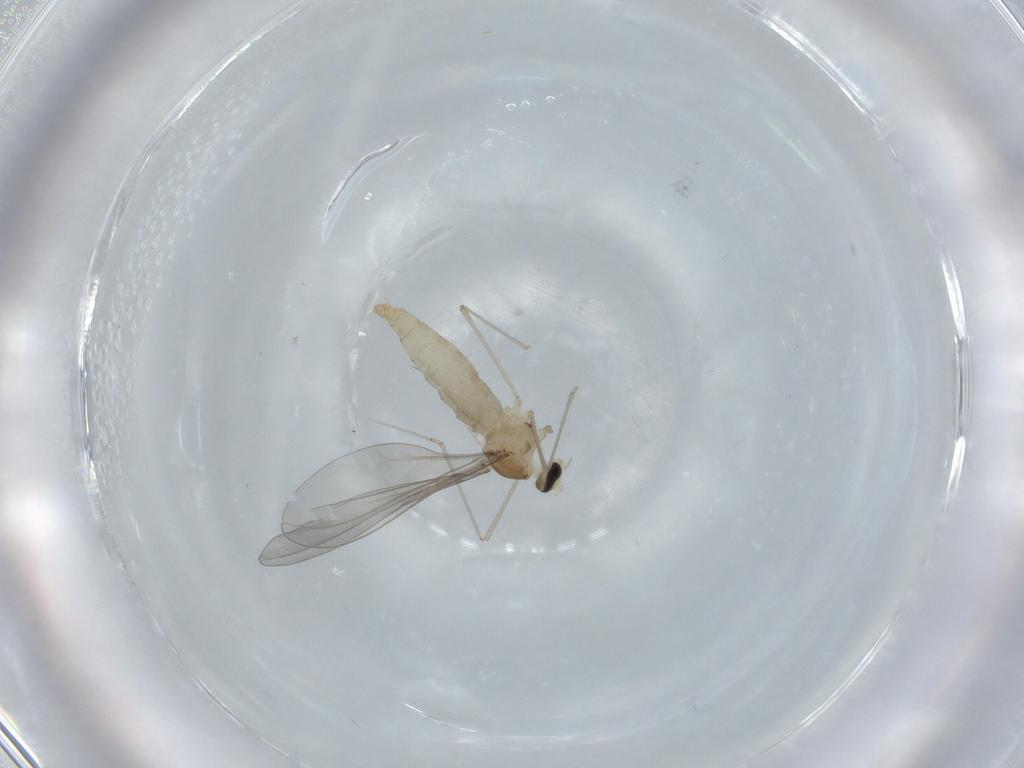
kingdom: Animalia
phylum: Arthropoda
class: Insecta
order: Diptera
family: Cecidomyiidae
